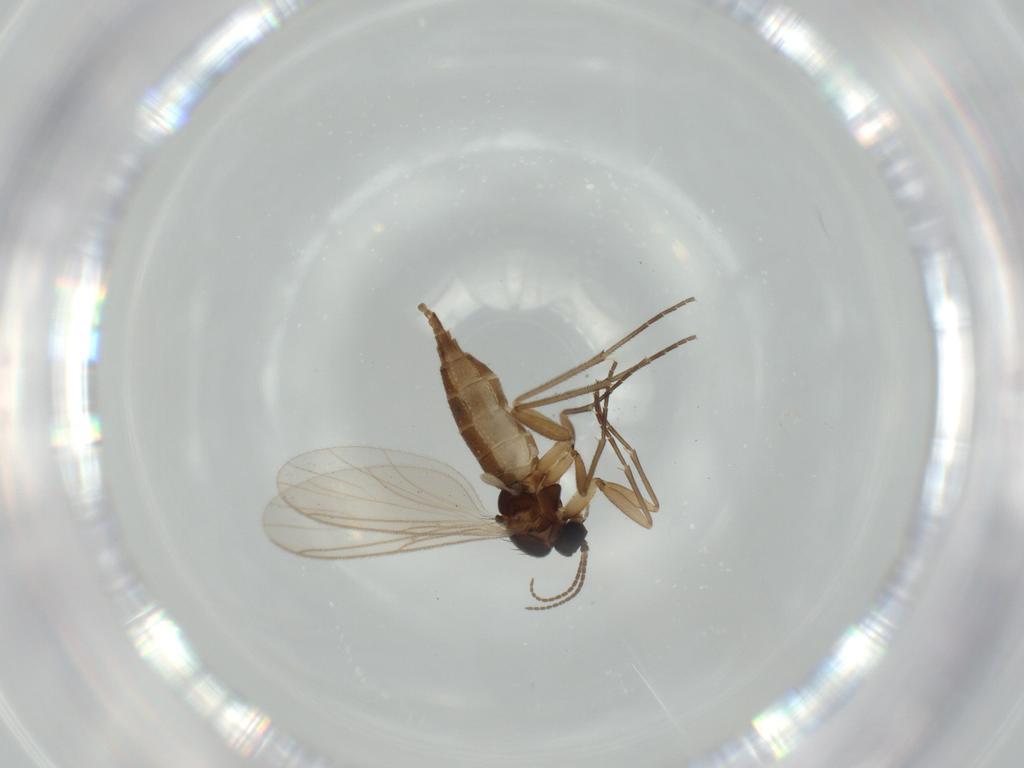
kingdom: Animalia
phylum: Arthropoda
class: Insecta
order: Diptera
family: Cecidomyiidae
